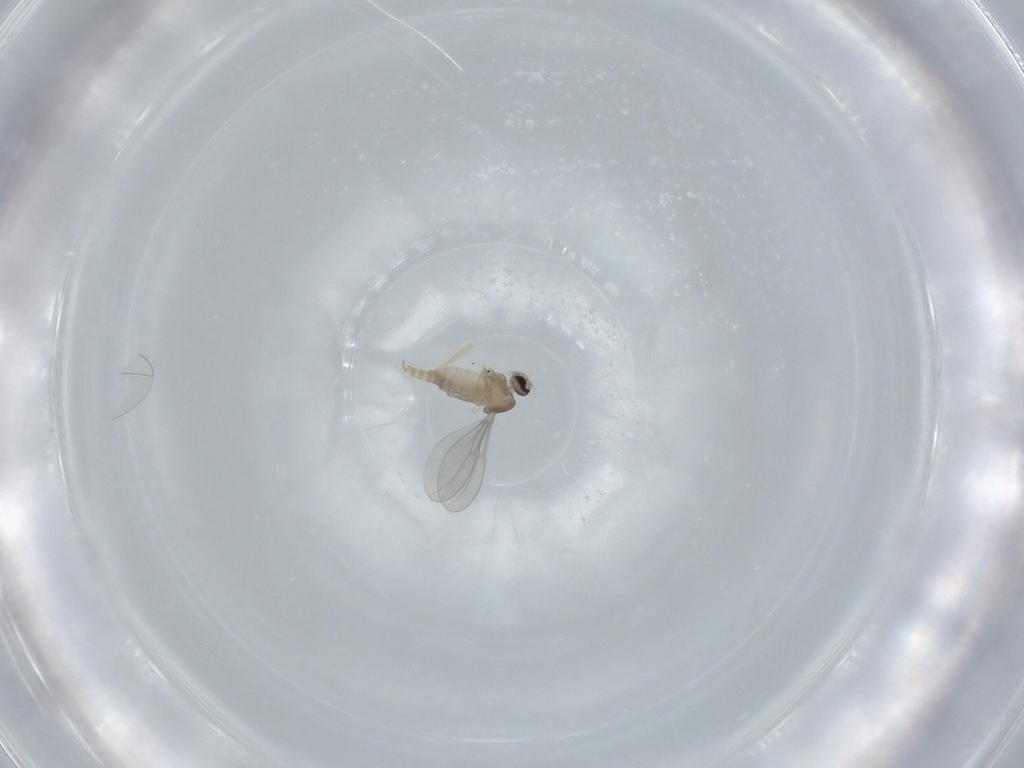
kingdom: Animalia
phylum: Arthropoda
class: Insecta
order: Diptera
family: Cecidomyiidae
